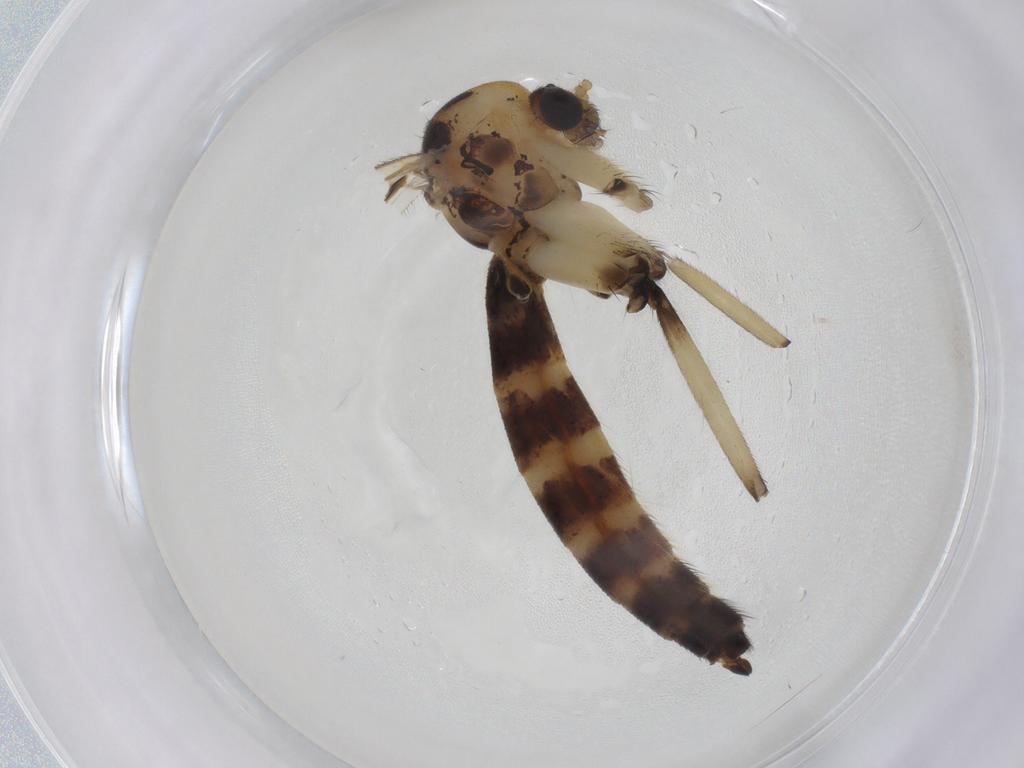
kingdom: Animalia
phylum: Arthropoda
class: Insecta
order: Diptera
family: Mycetophilidae
